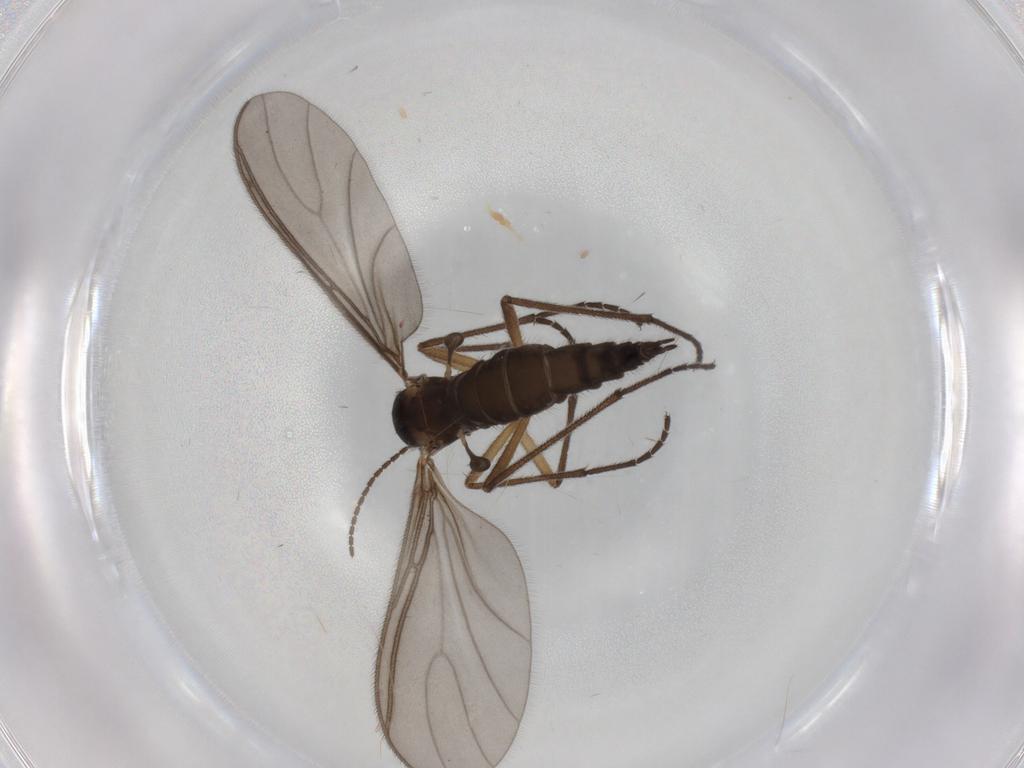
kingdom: Animalia
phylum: Arthropoda
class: Insecta
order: Diptera
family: Sciaridae
